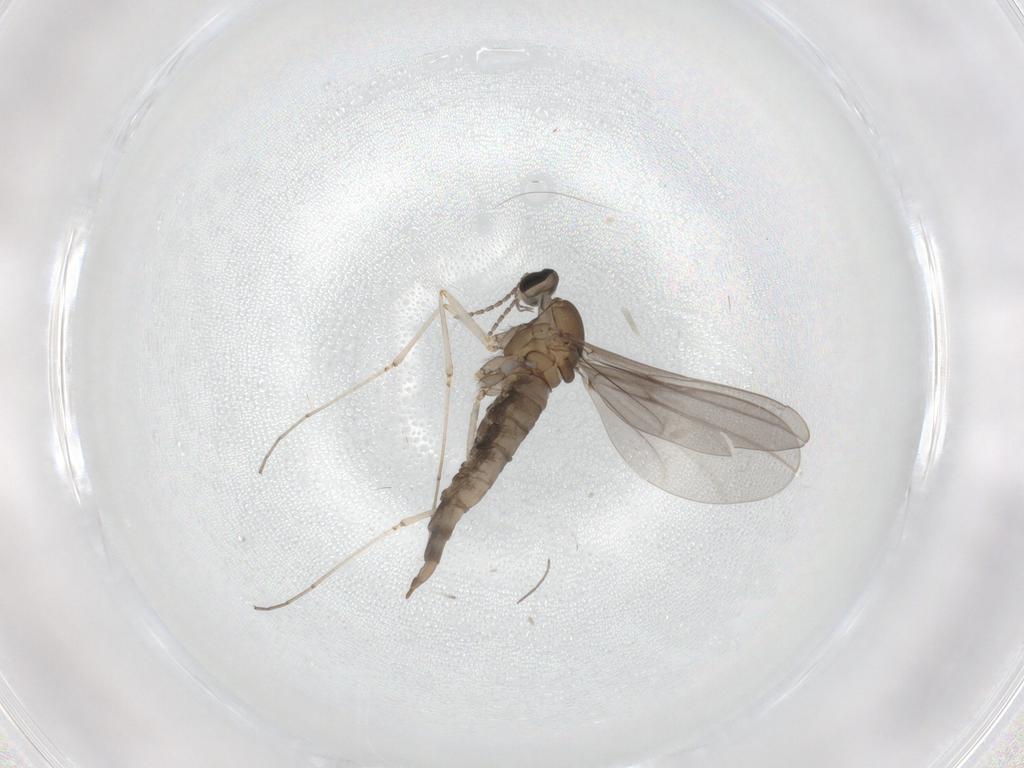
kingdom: Animalia
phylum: Arthropoda
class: Insecta
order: Diptera
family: Cecidomyiidae
